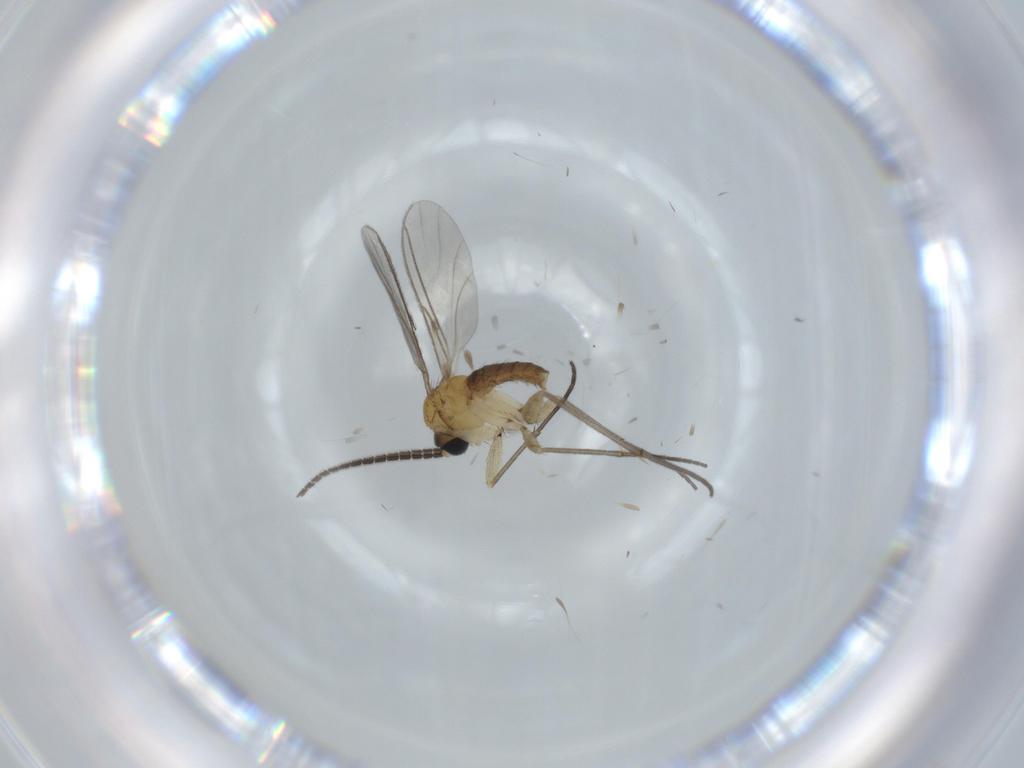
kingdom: Animalia
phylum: Arthropoda
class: Insecta
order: Diptera
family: Sciaridae
